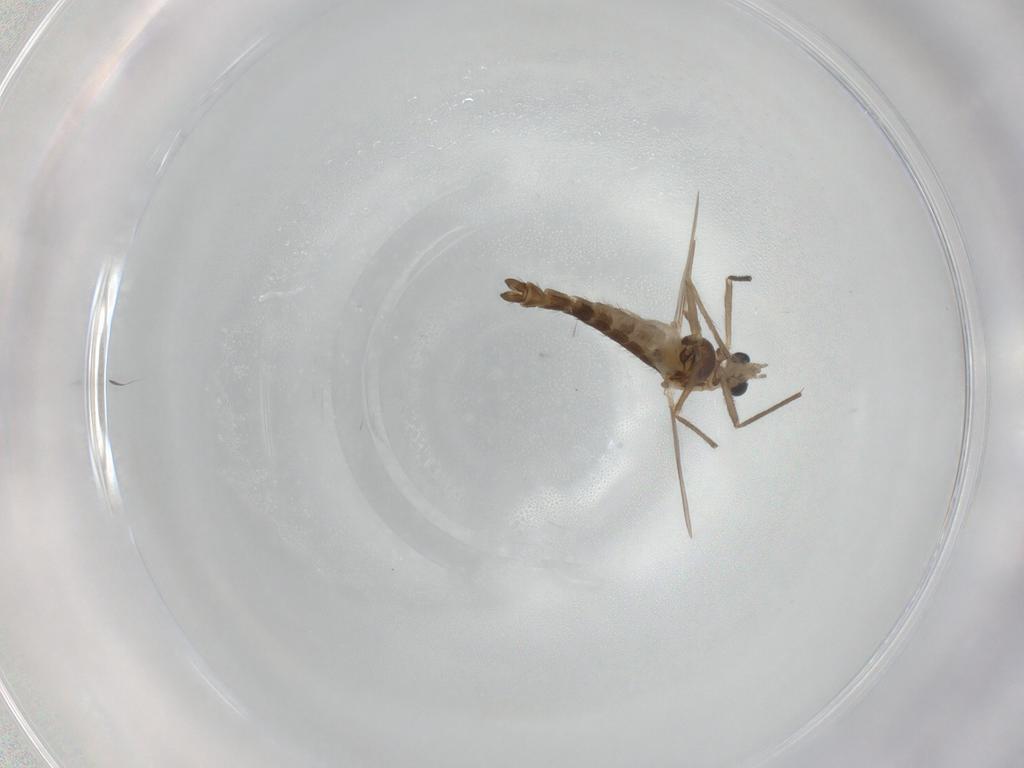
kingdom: Animalia
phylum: Arthropoda
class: Insecta
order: Diptera
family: Chironomidae
